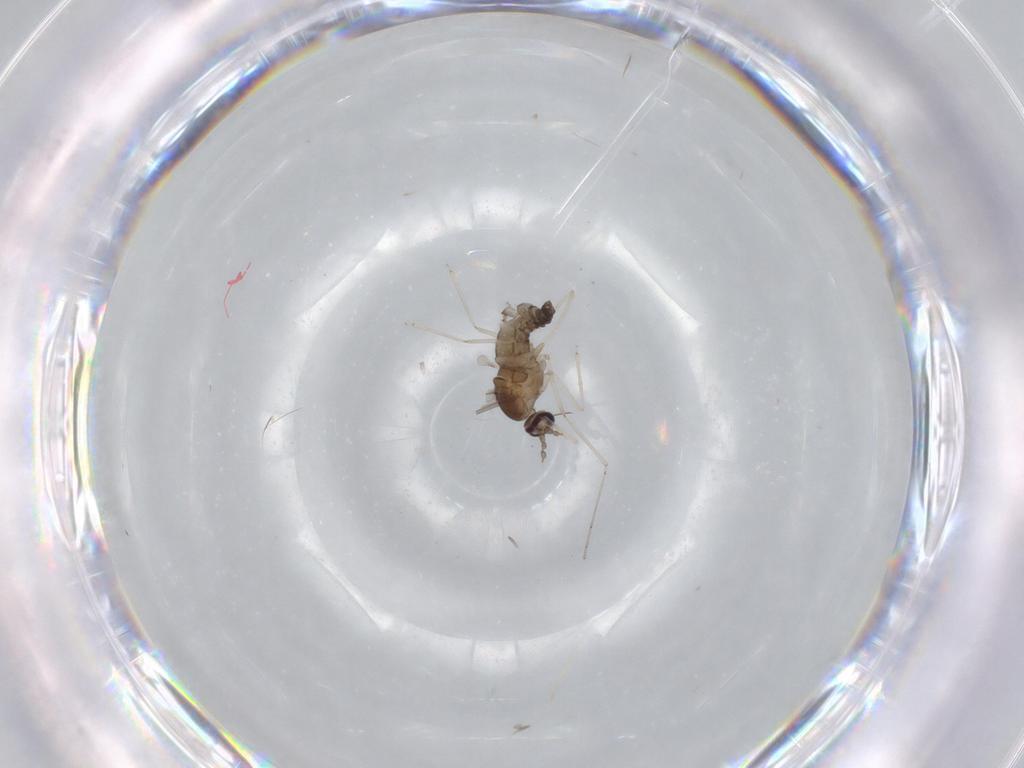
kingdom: Animalia
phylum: Arthropoda
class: Insecta
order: Diptera
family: Cecidomyiidae
